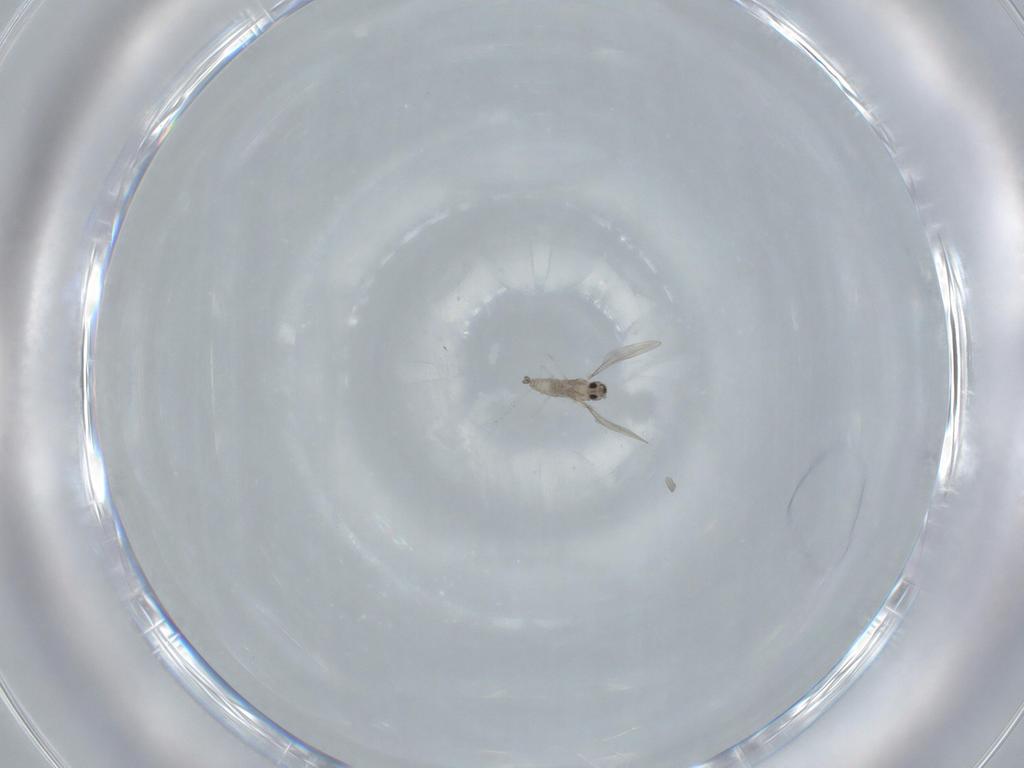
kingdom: Animalia
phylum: Arthropoda
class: Insecta
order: Diptera
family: Cecidomyiidae
